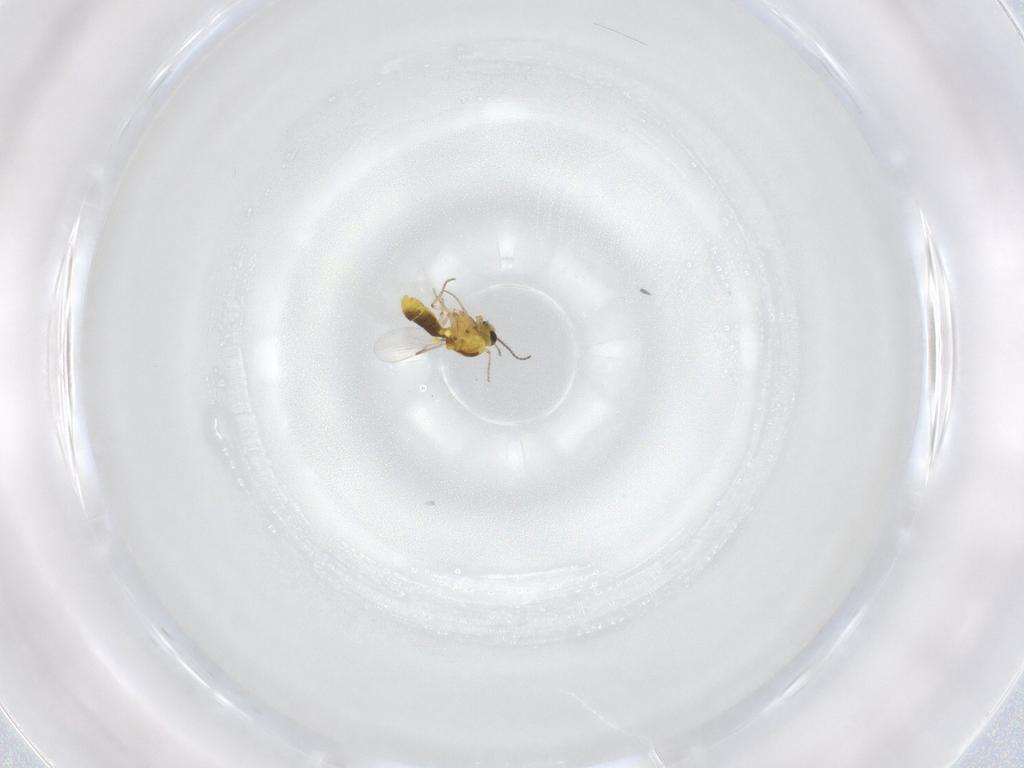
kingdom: Animalia
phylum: Arthropoda
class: Insecta
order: Diptera
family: Ceratopogonidae
